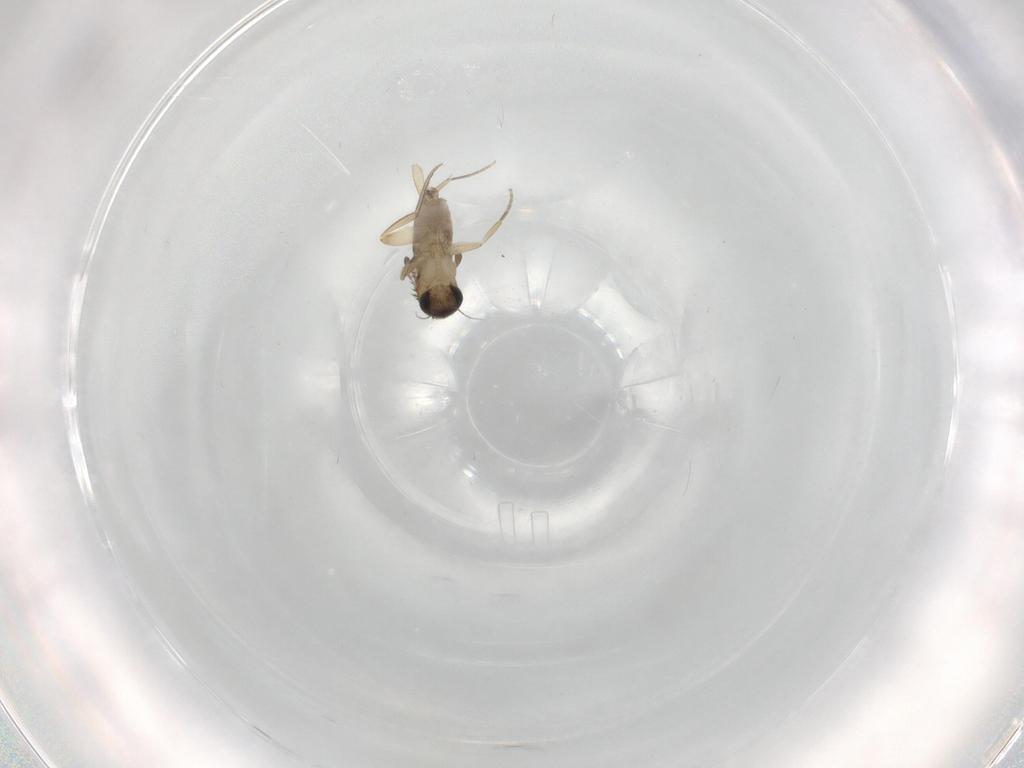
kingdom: Animalia
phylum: Arthropoda
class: Insecta
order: Diptera
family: Phoridae
